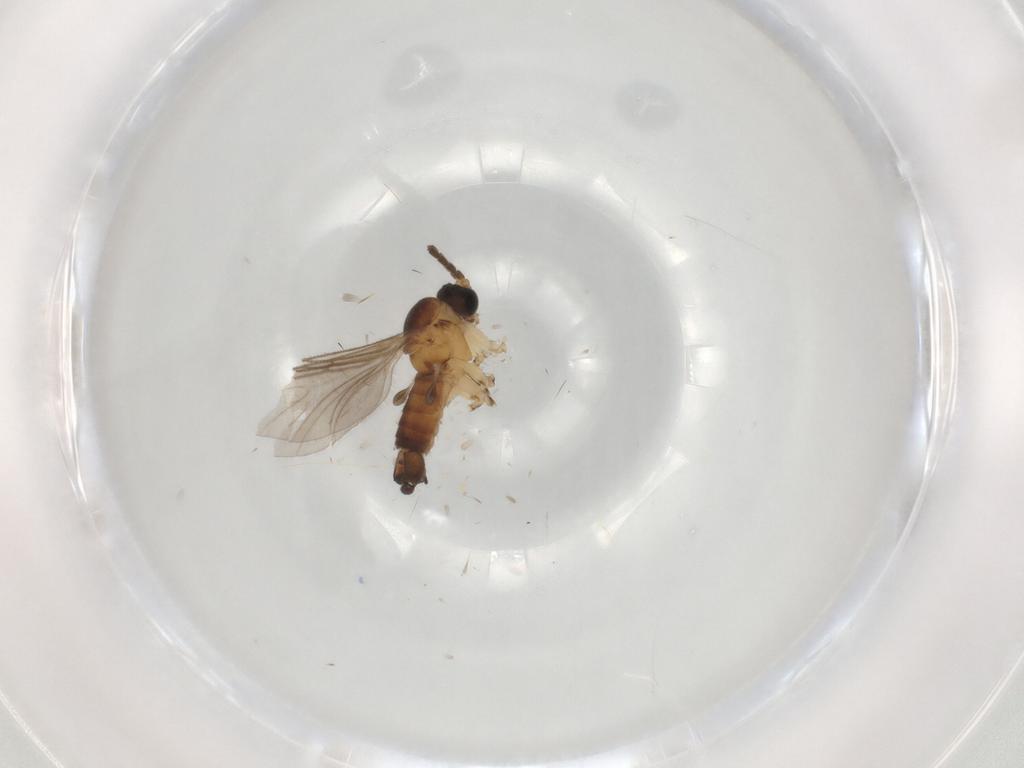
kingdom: Animalia
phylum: Arthropoda
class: Insecta
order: Diptera
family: Sciaridae
